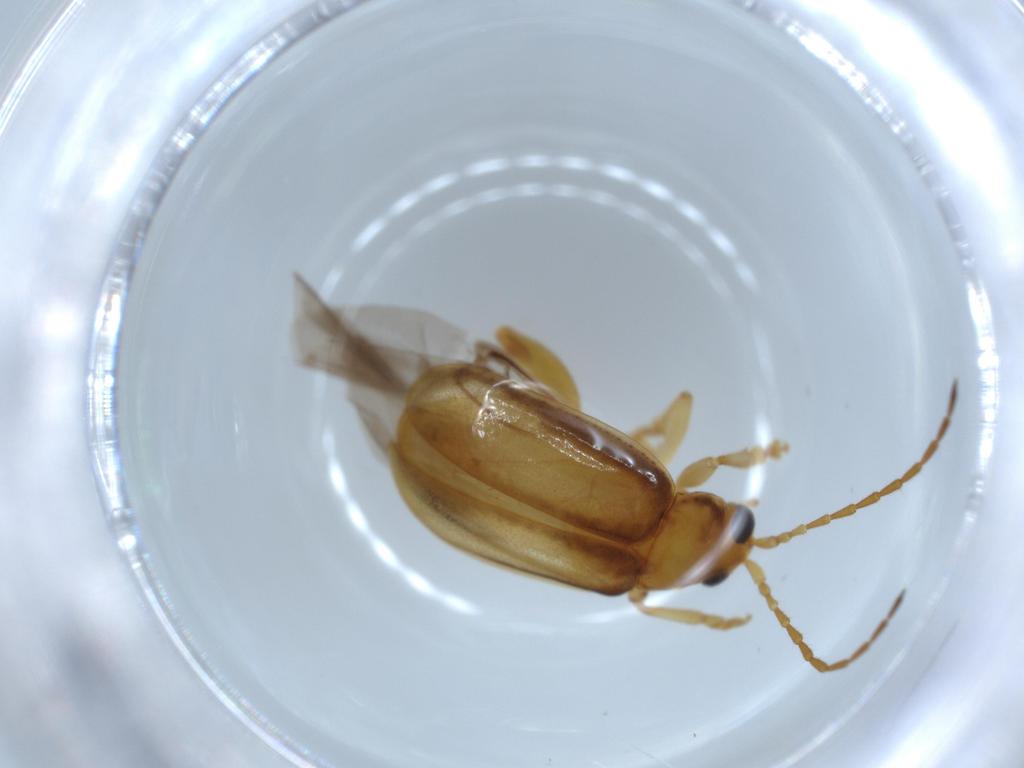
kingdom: Animalia
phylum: Arthropoda
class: Insecta
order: Coleoptera
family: Chrysomelidae
